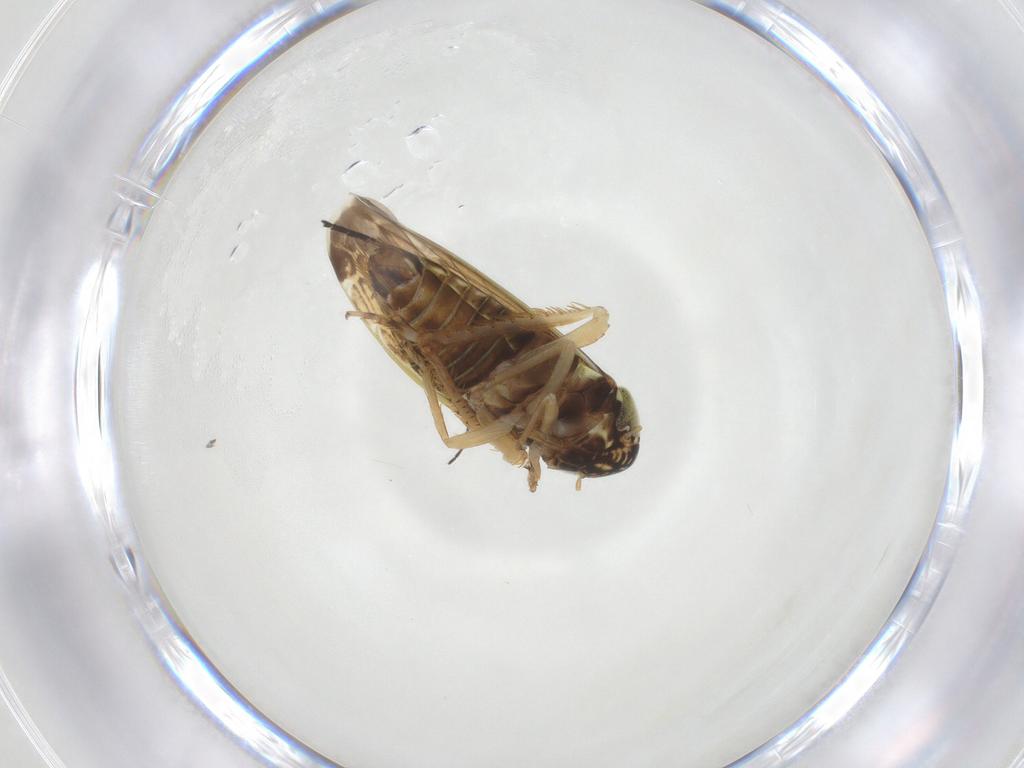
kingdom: Animalia
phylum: Arthropoda
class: Insecta
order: Hemiptera
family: Cicadellidae
